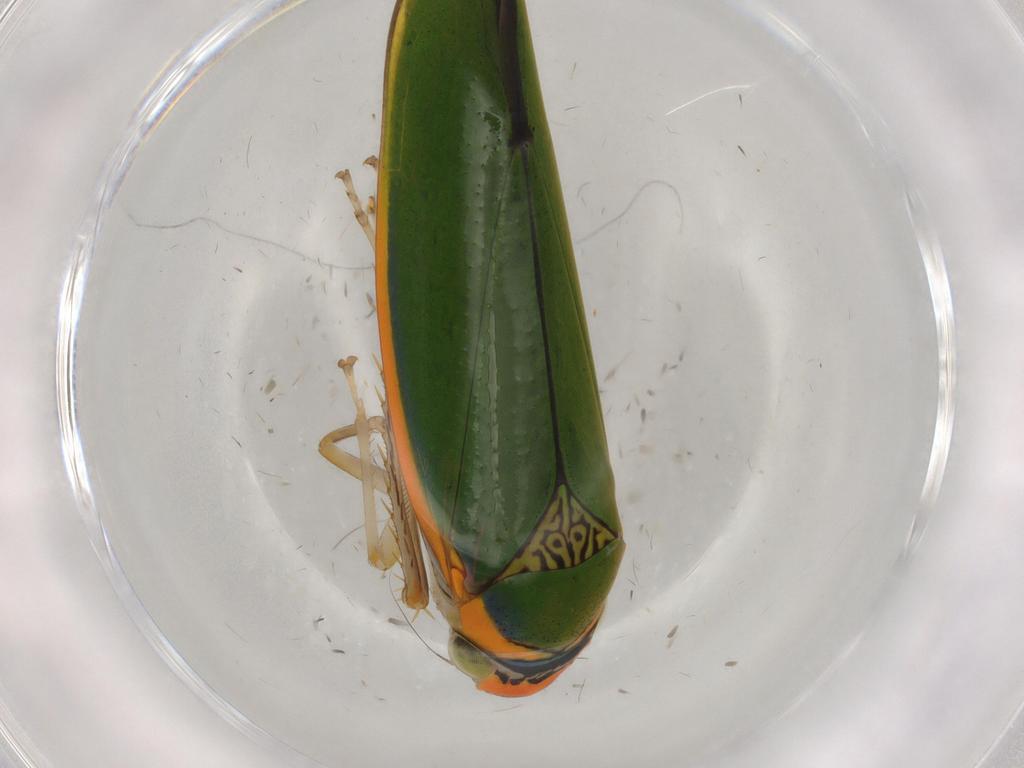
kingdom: Animalia
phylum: Arthropoda
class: Insecta
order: Hemiptera
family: Cicadellidae
